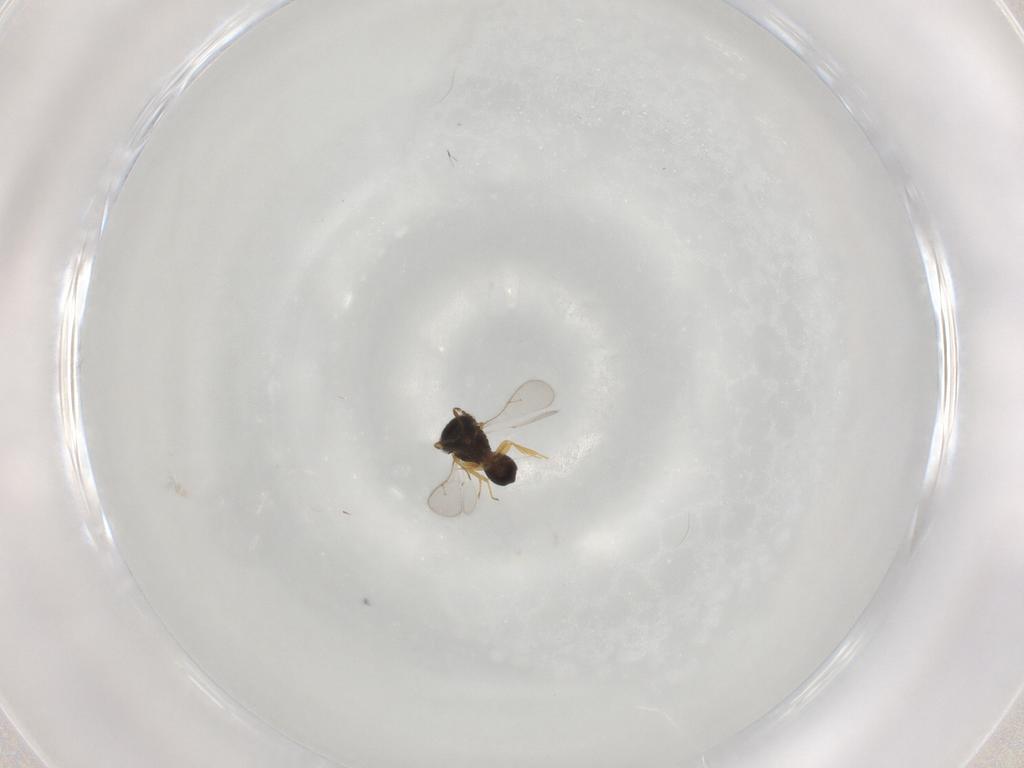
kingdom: Animalia
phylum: Arthropoda
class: Insecta
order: Hymenoptera
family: Scelionidae
